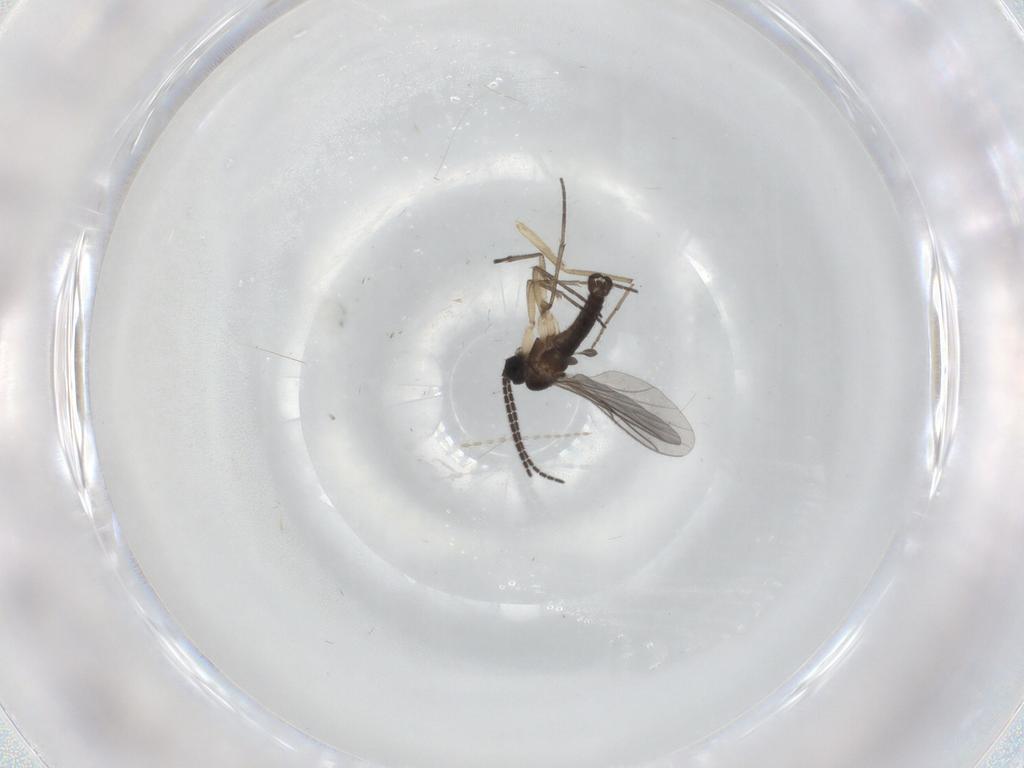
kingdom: Animalia
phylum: Arthropoda
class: Insecta
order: Diptera
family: Sciaridae
